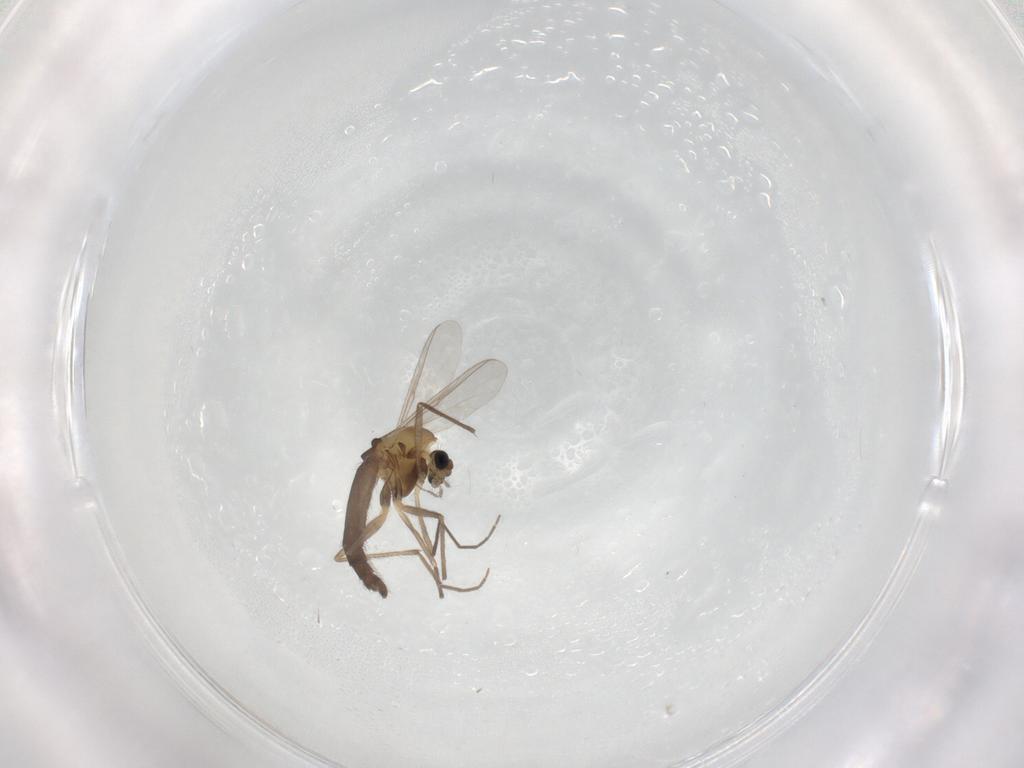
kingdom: Animalia
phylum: Arthropoda
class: Insecta
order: Diptera
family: Chironomidae
